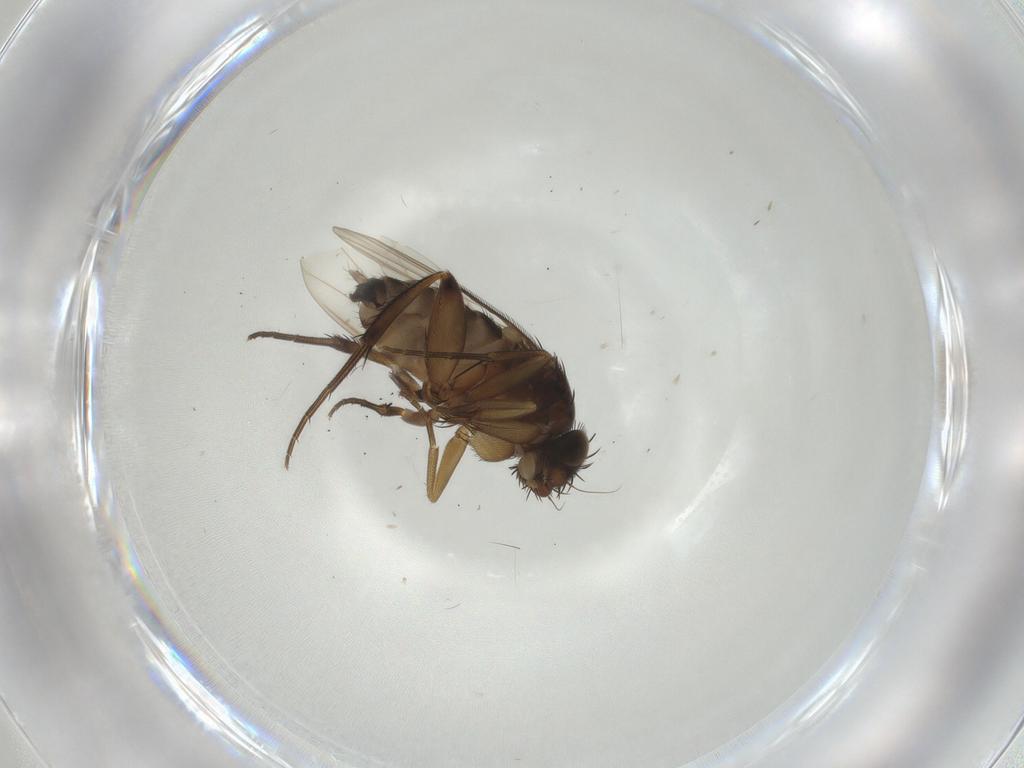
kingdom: Animalia
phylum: Arthropoda
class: Insecta
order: Diptera
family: Phoridae
